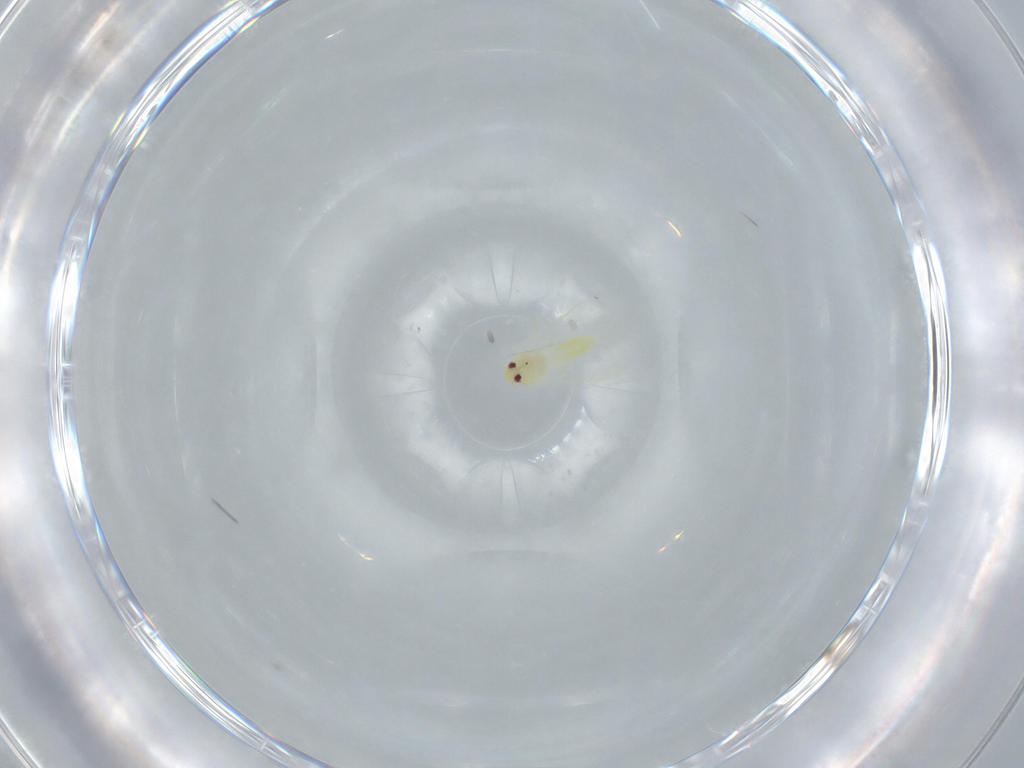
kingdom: Animalia
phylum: Arthropoda
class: Insecta
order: Hemiptera
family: Aleyrodidae
